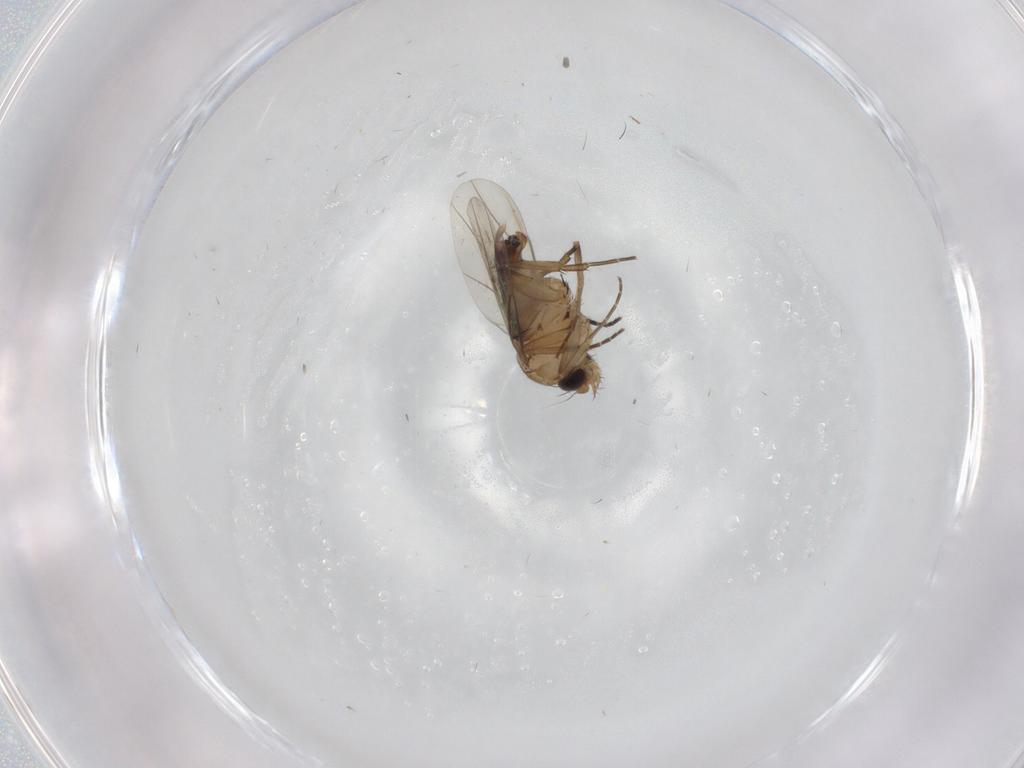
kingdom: Animalia
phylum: Arthropoda
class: Insecta
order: Diptera
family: Phoridae
